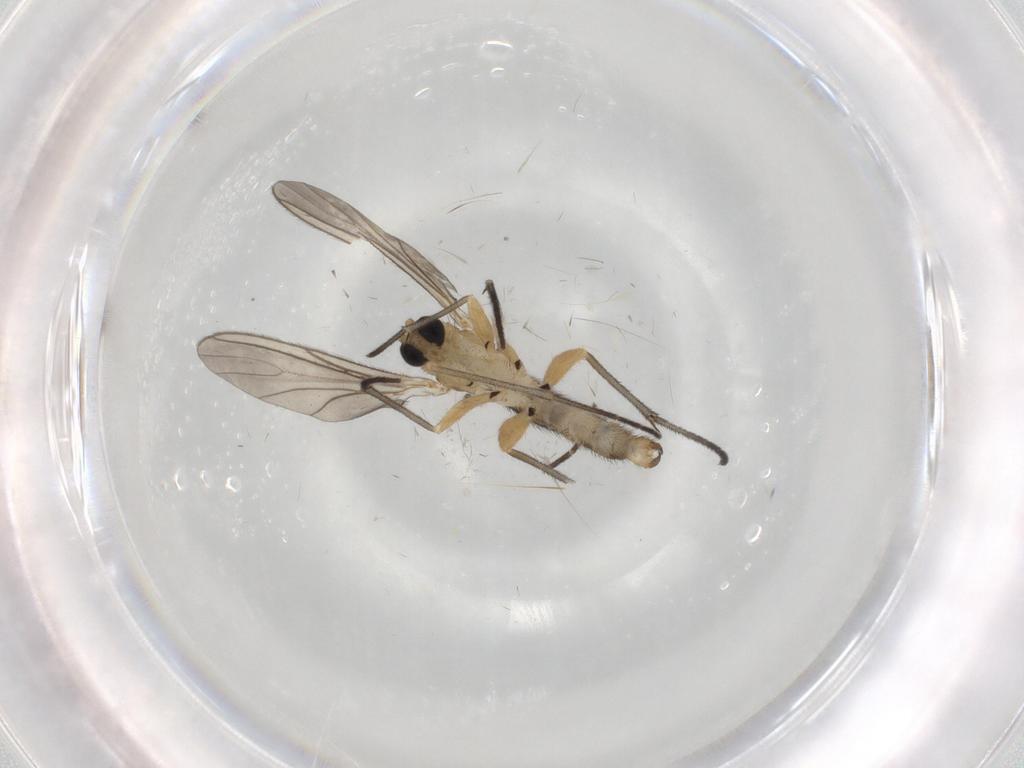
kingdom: Animalia
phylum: Arthropoda
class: Insecta
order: Diptera
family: Sciaridae
